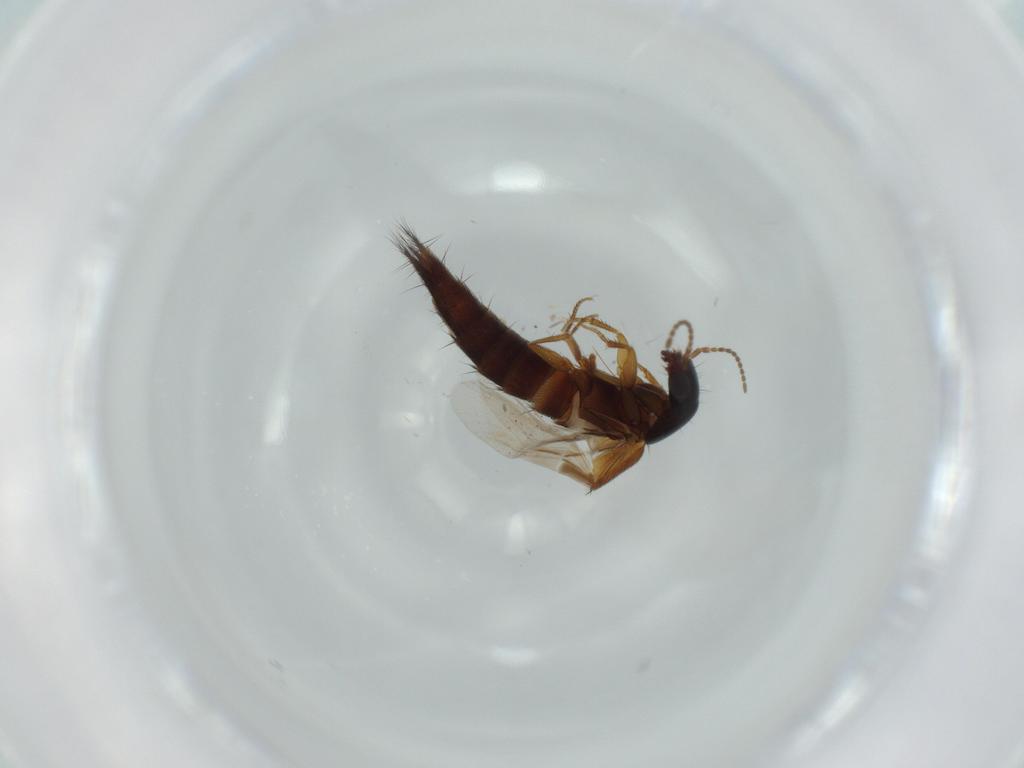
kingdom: Animalia
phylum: Arthropoda
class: Insecta
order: Coleoptera
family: Staphylinidae
